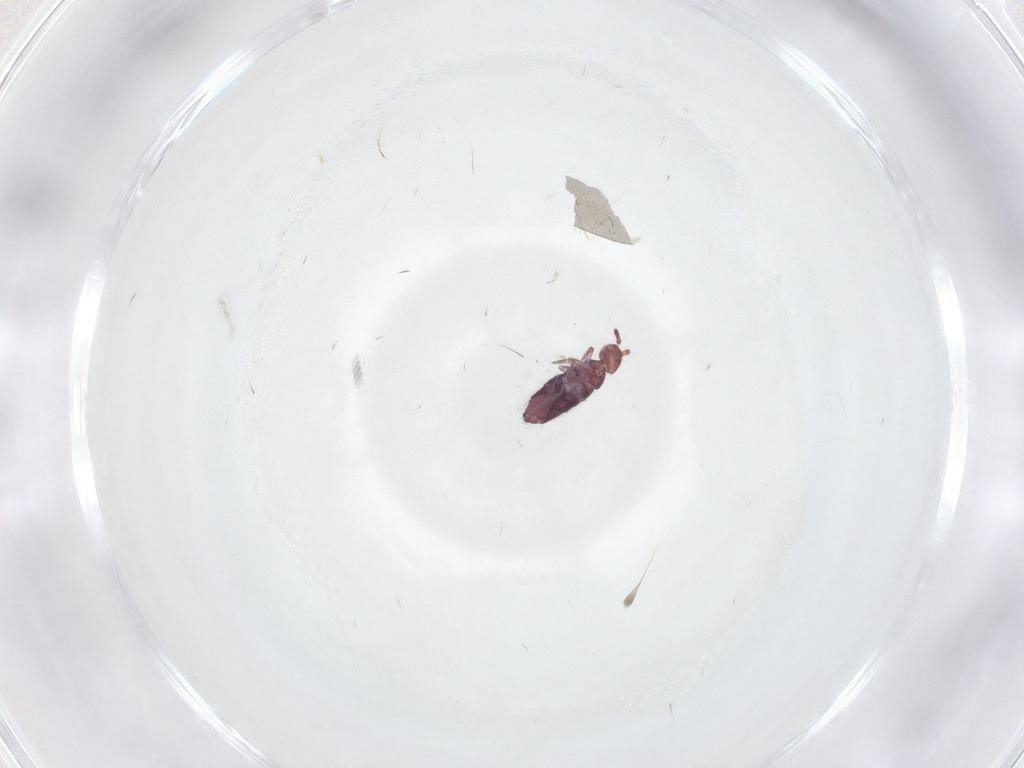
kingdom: Animalia
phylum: Arthropoda
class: Collembola
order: Entomobryomorpha
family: Entomobryidae
